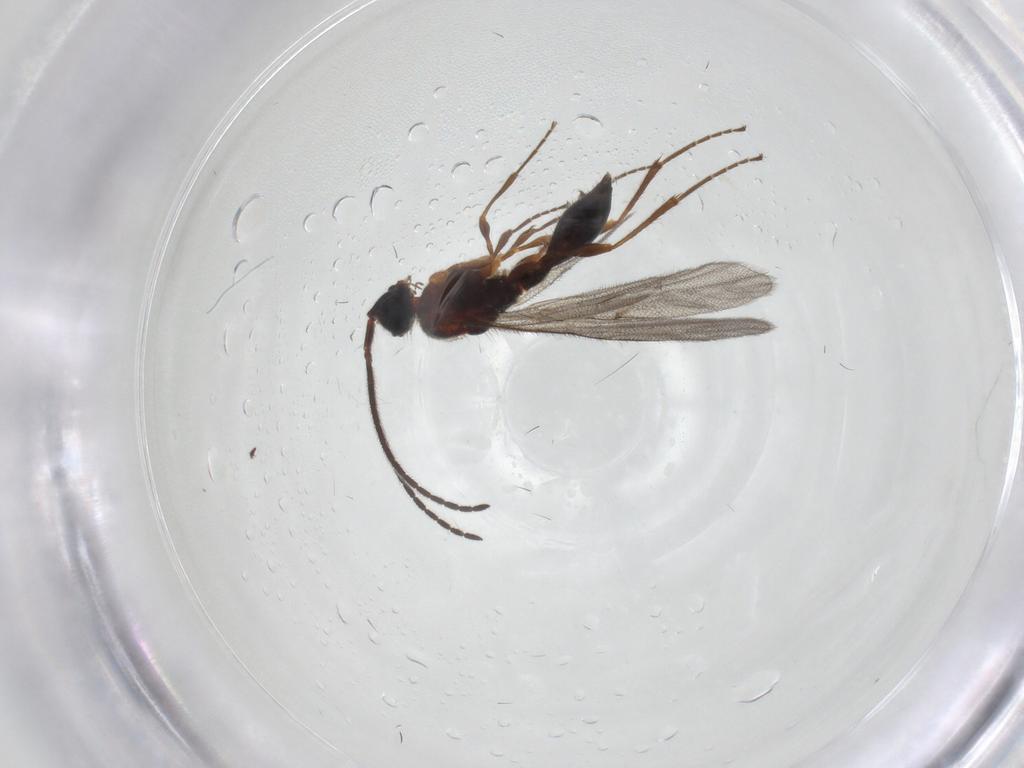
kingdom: Animalia
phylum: Arthropoda
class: Insecta
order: Hymenoptera
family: Diapriidae
